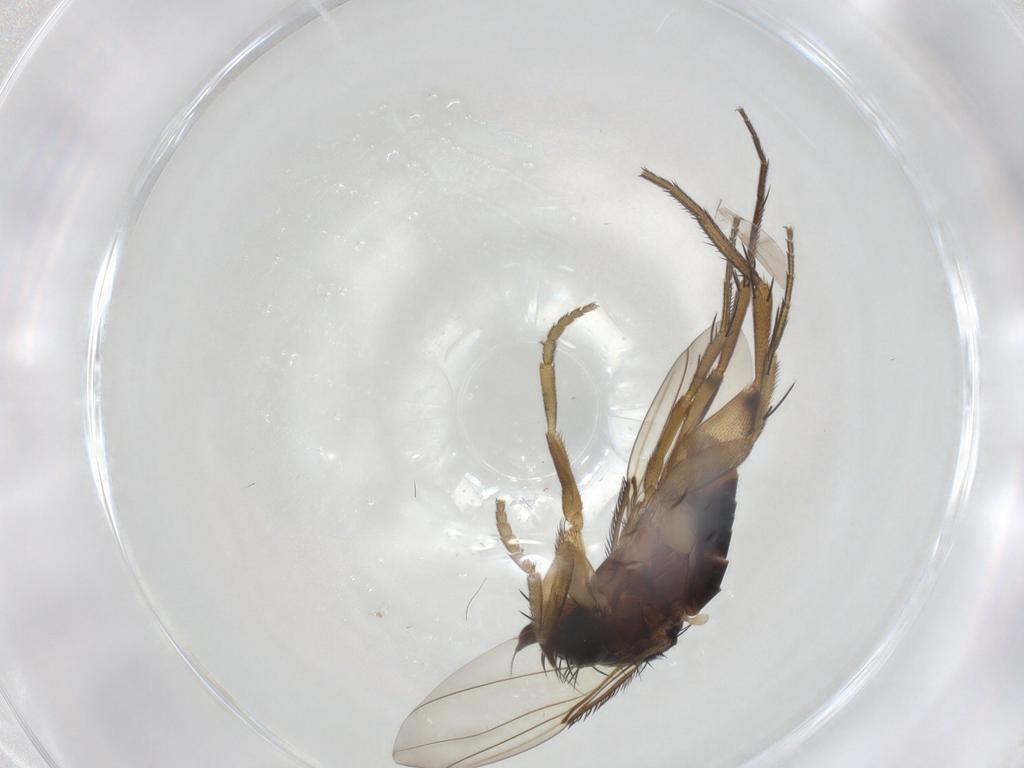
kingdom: Animalia
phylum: Arthropoda
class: Insecta
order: Diptera
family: Phoridae
